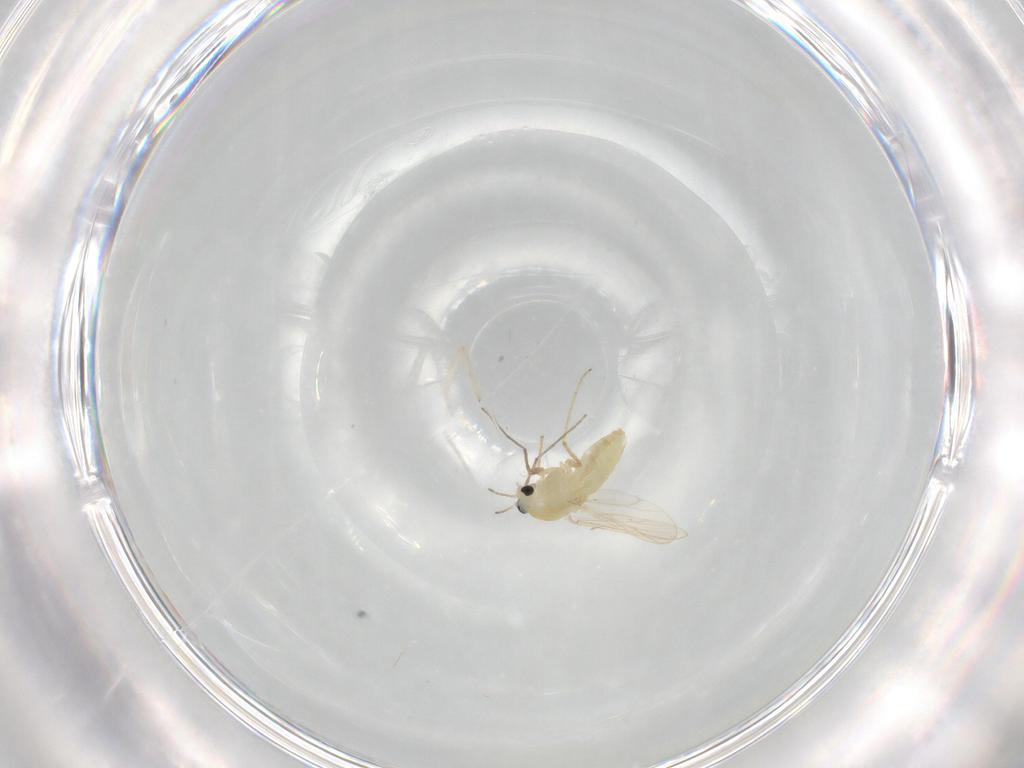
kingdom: Animalia
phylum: Arthropoda
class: Insecta
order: Diptera
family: Chironomidae
